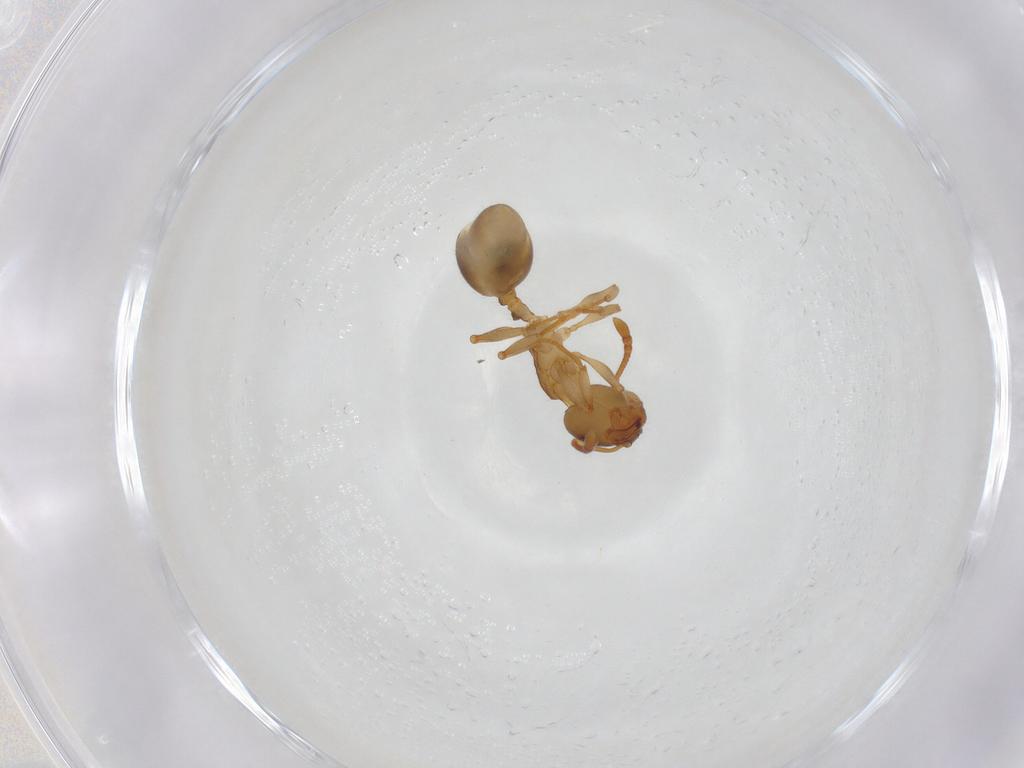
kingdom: Animalia
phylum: Arthropoda
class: Insecta
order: Hymenoptera
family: Formicidae
